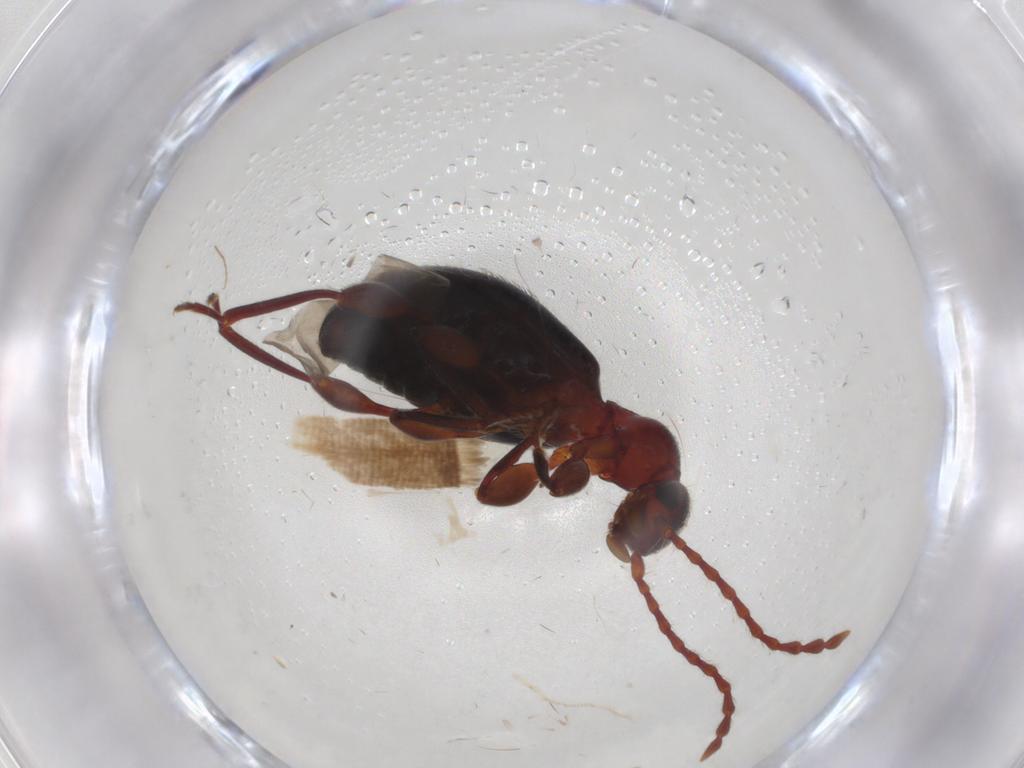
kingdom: Animalia
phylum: Arthropoda
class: Insecta
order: Coleoptera
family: Anthicidae
